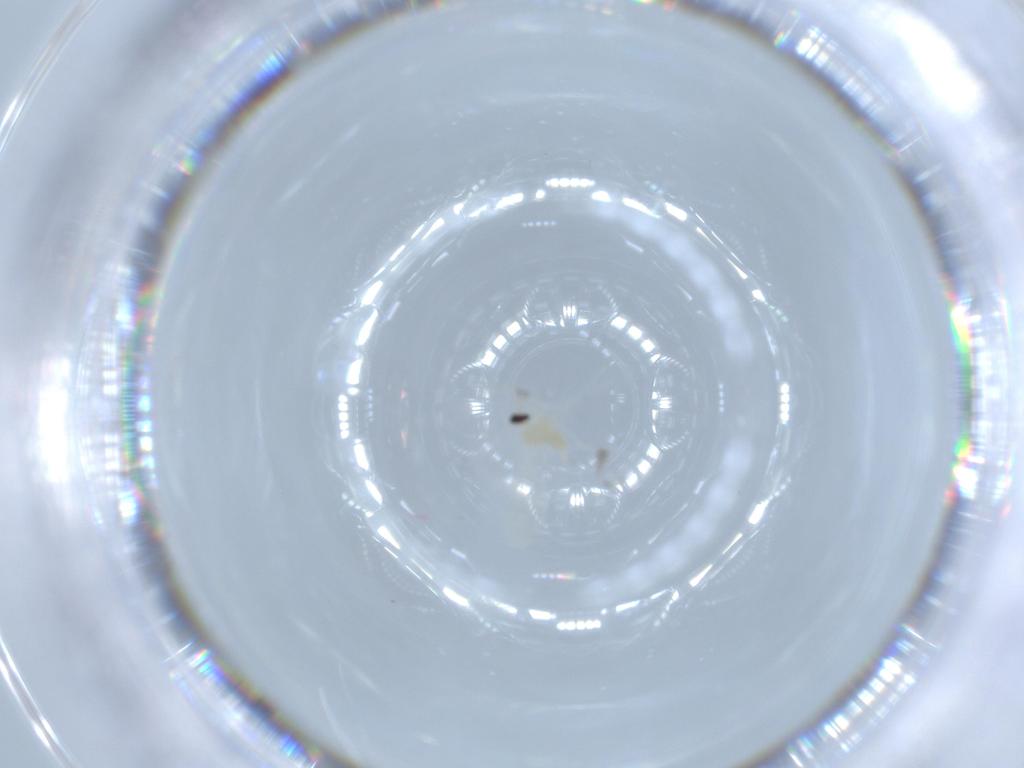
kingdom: Animalia
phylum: Arthropoda
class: Insecta
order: Diptera
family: Cecidomyiidae
